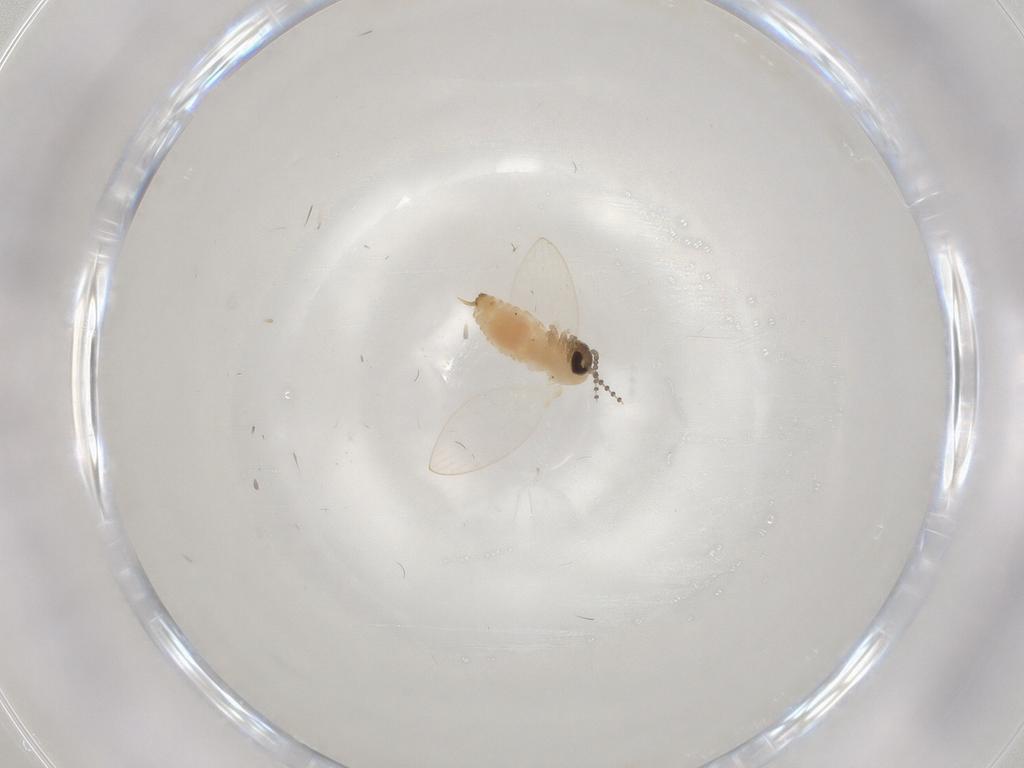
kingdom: Animalia
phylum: Arthropoda
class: Insecta
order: Diptera
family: Psychodidae
